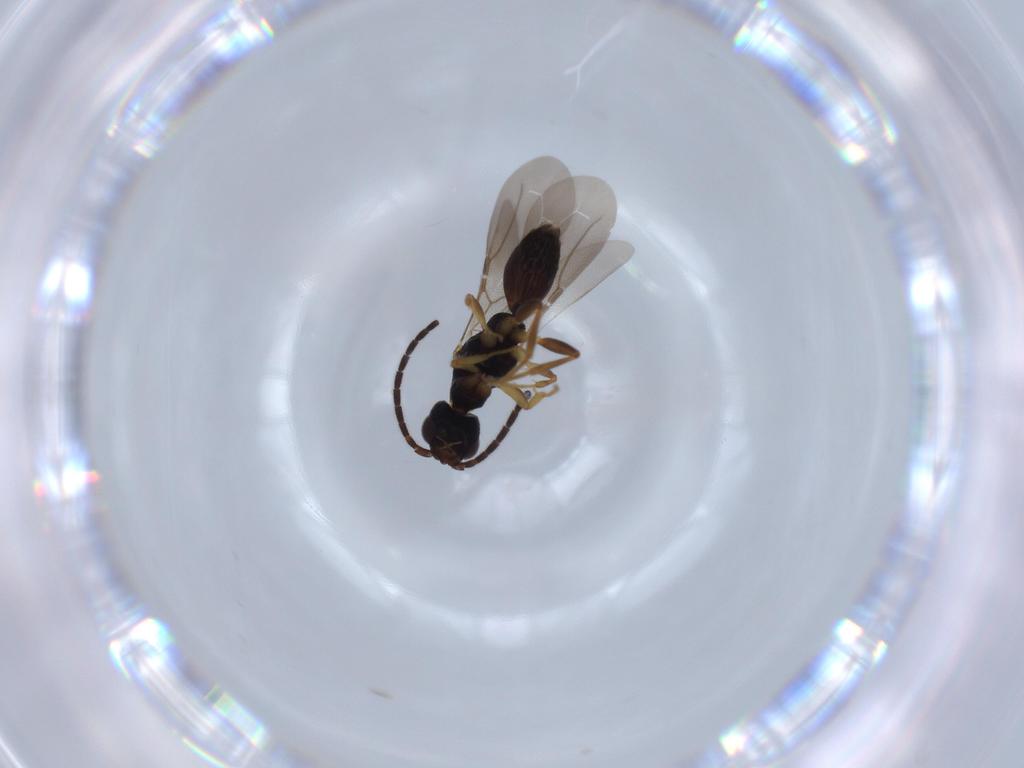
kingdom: Animalia
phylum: Arthropoda
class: Insecta
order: Hymenoptera
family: Bethylidae
